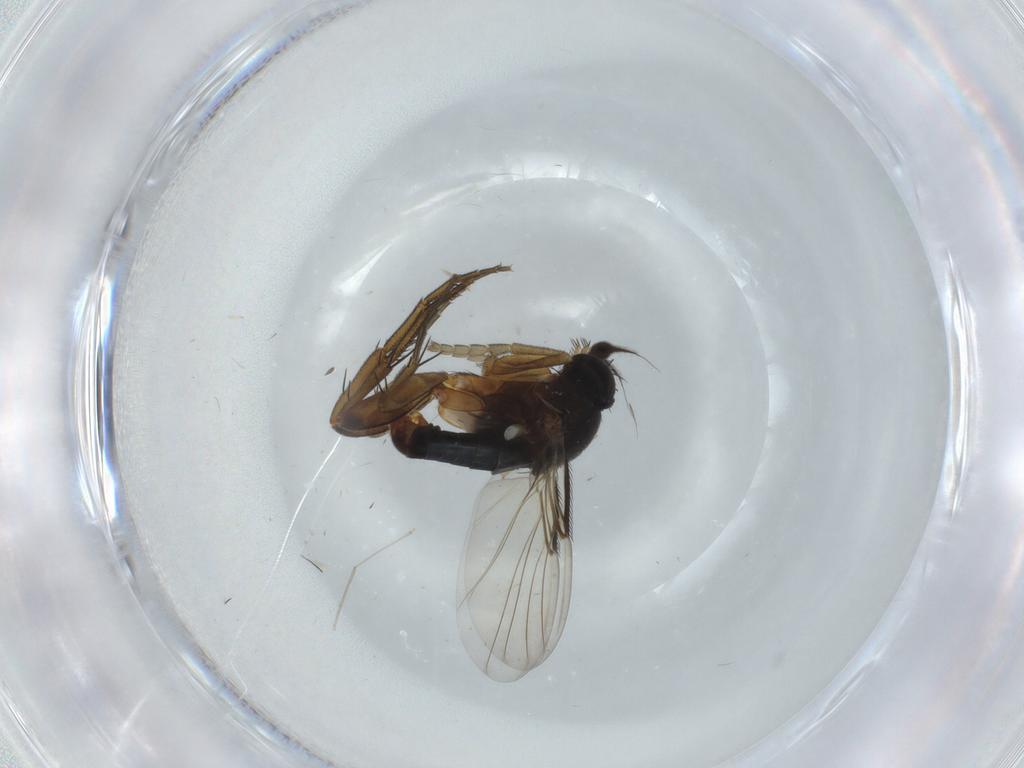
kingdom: Animalia
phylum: Arthropoda
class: Insecta
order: Diptera
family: Phoridae
